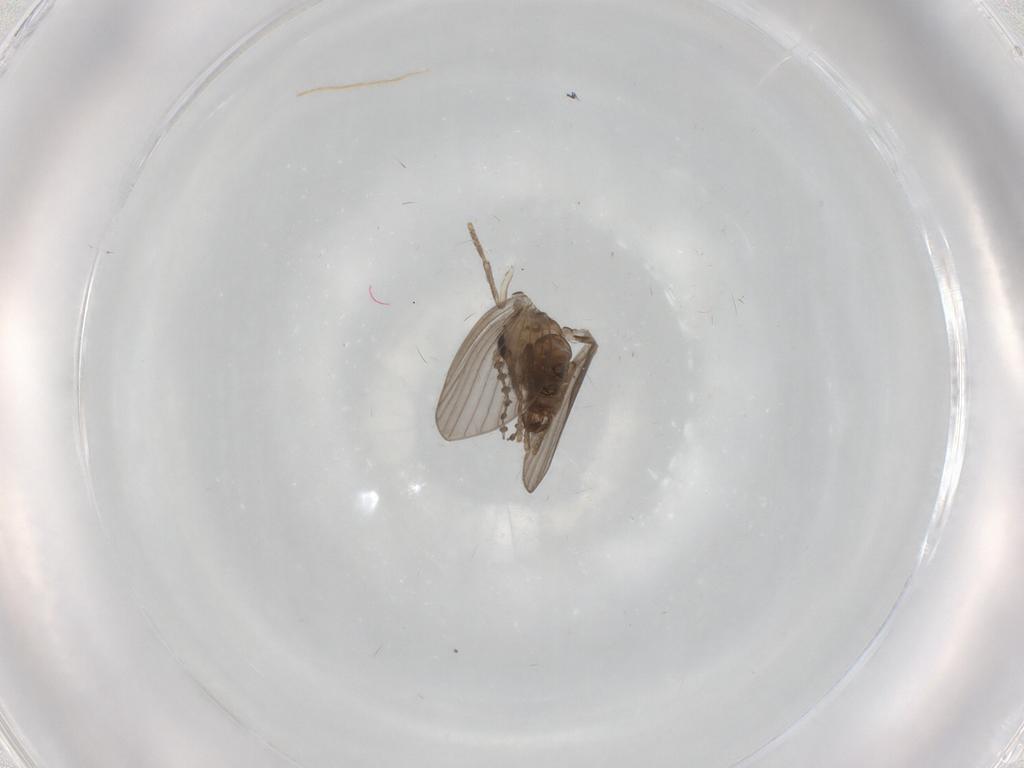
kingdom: Animalia
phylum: Arthropoda
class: Insecta
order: Diptera
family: Psychodidae
